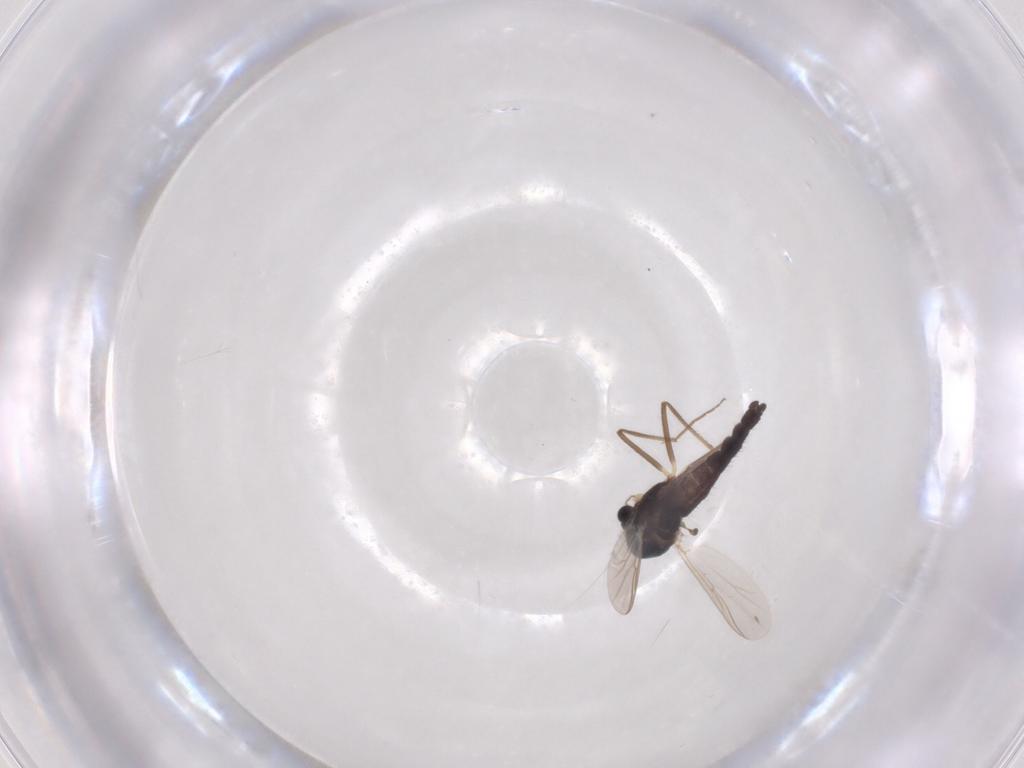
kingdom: Animalia
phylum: Arthropoda
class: Insecta
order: Diptera
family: Chironomidae
